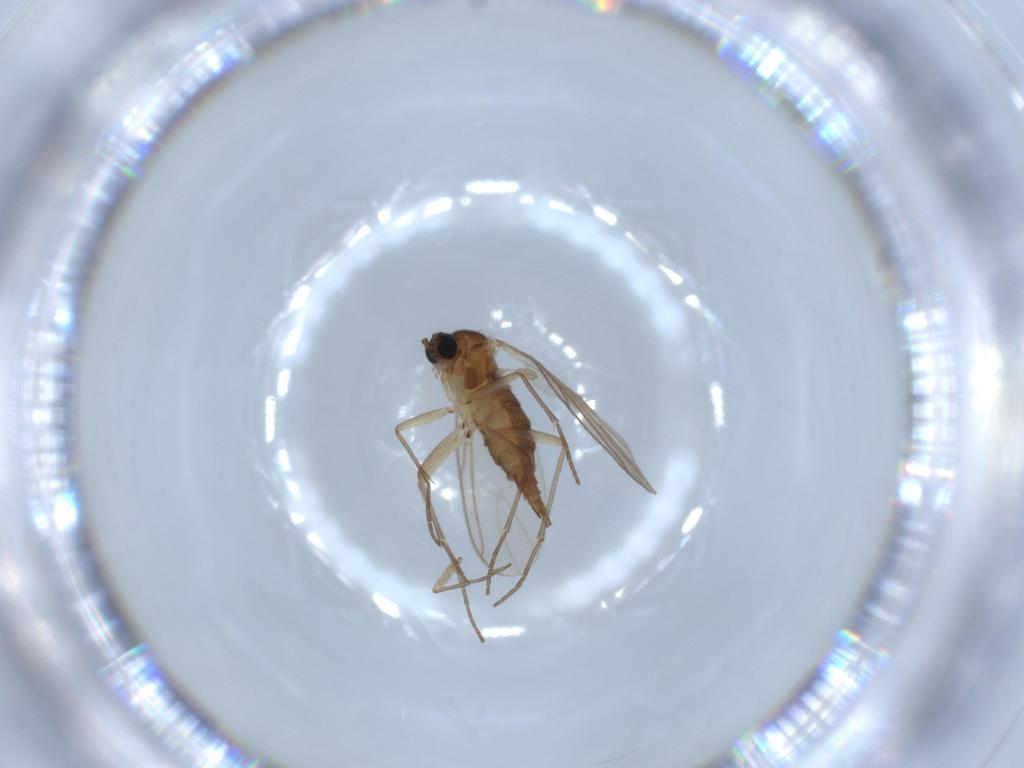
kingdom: Animalia
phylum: Arthropoda
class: Insecta
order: Diptera
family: Sciaridae
